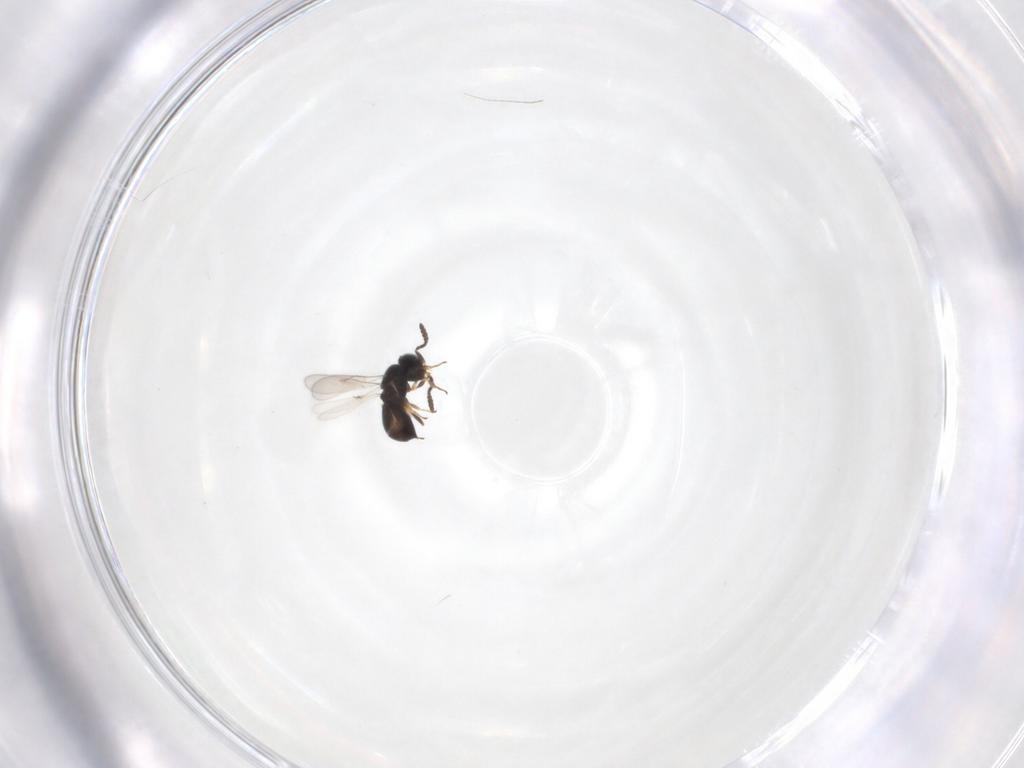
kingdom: Animalia
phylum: Arthropoda
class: Insecta
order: Hymenoptera
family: Scelionidae
